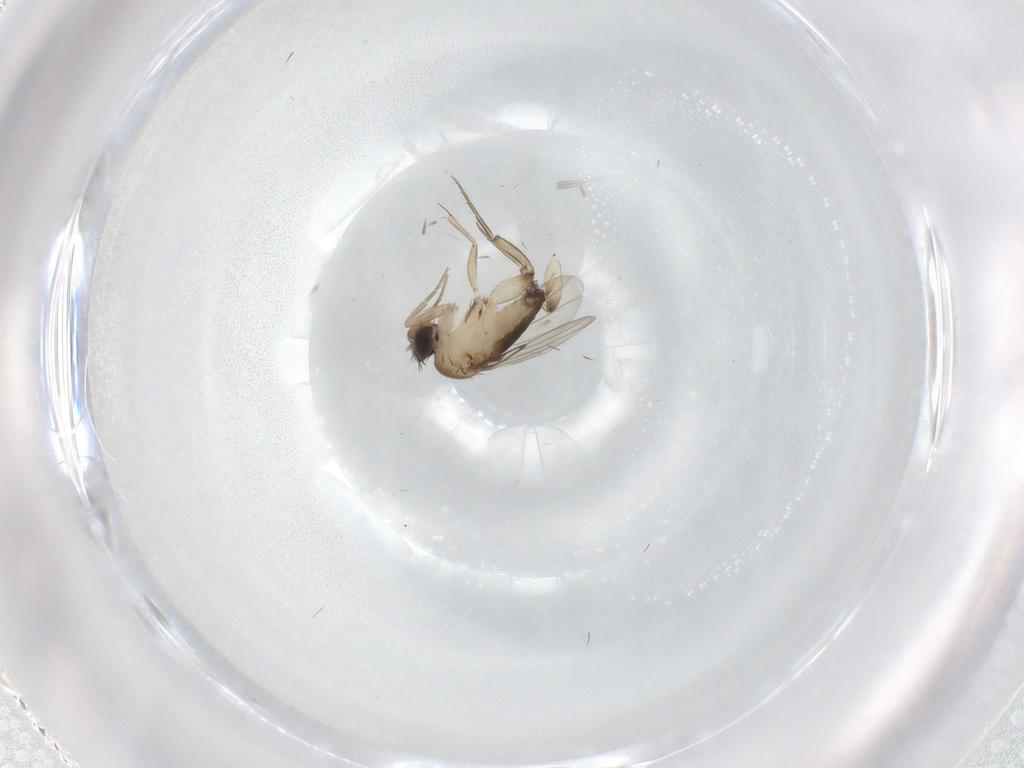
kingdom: Animalia
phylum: Arthropoda
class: Insecta
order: Diptera
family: Phoridae
